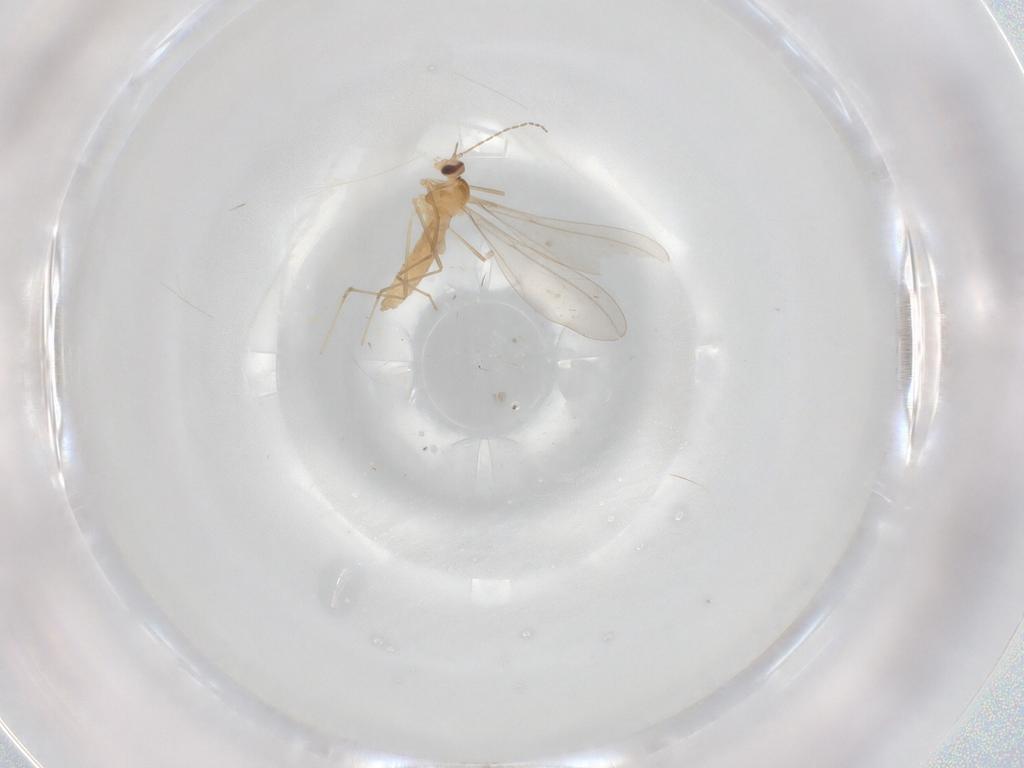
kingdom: Animalia
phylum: Arthropoda
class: Insecta
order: Diptera
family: Cecidomyiidae
